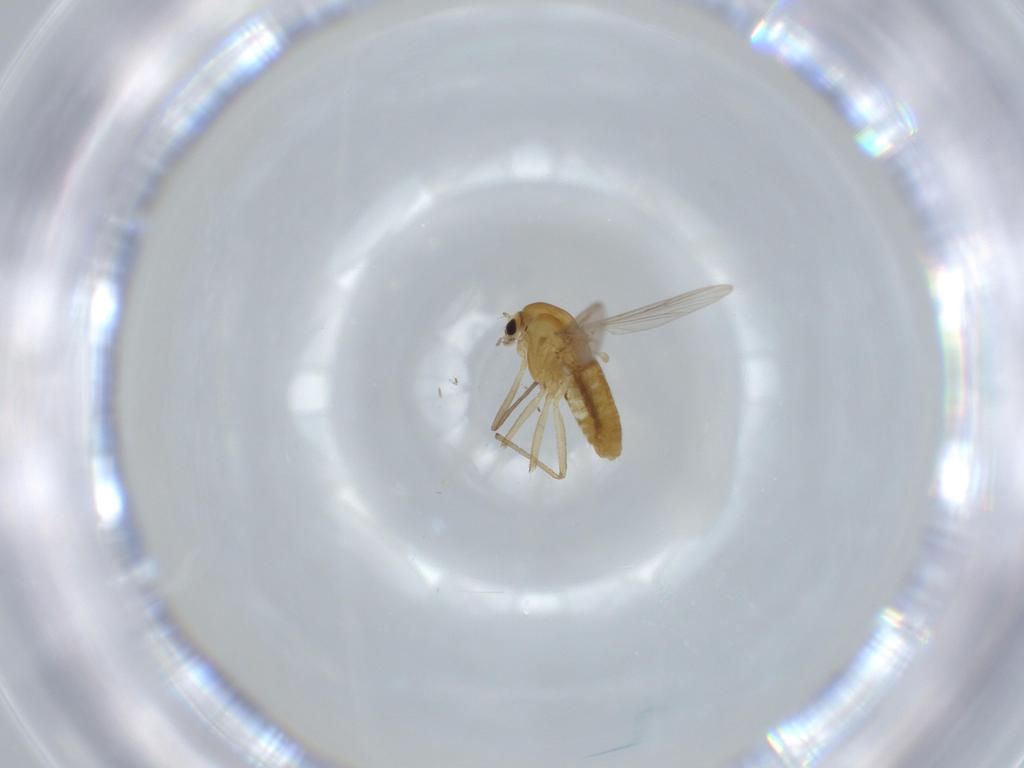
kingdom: Animalia
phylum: Arthropoda
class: Insecta
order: Diptera
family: Chironomidae
